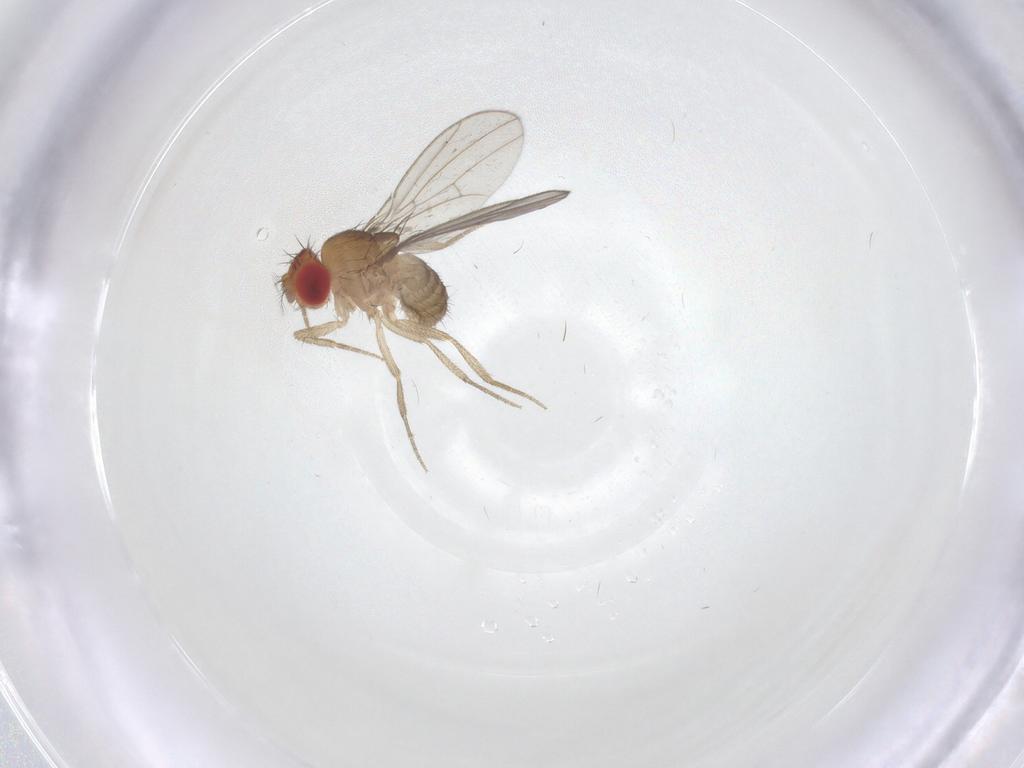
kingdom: Animalia
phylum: Arthropoda
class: Insecta
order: Diptera
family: Drosophilidae
